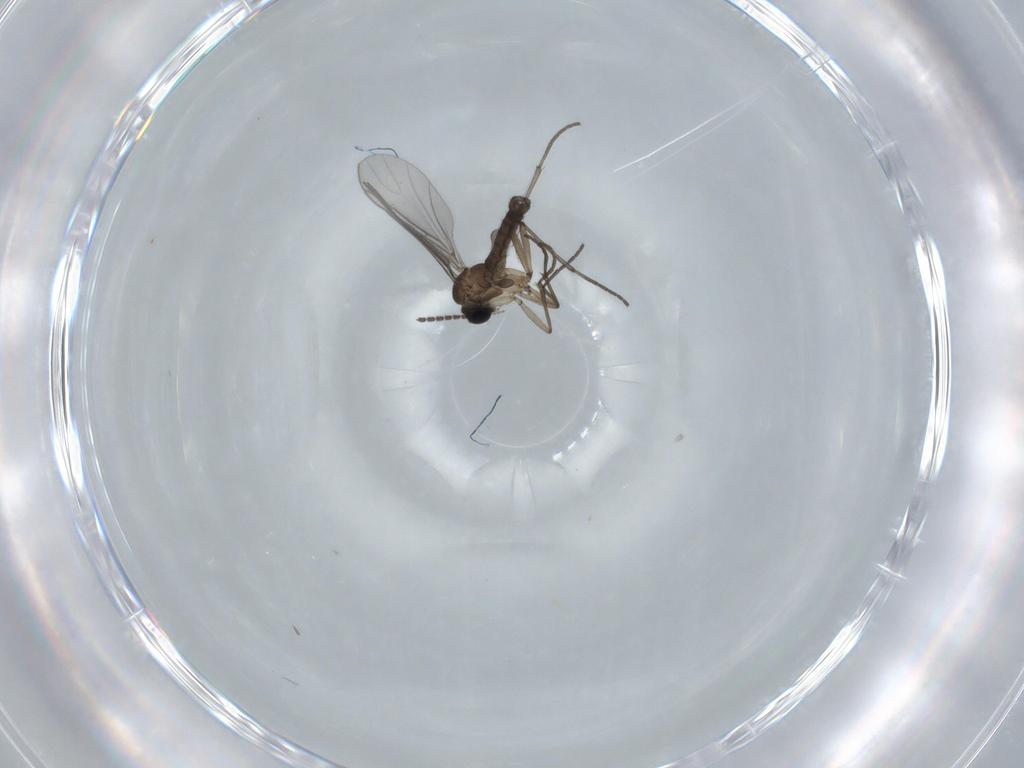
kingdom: Animalia
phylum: Arthropoda
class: Insecta
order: Diptera
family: Sciaridae
